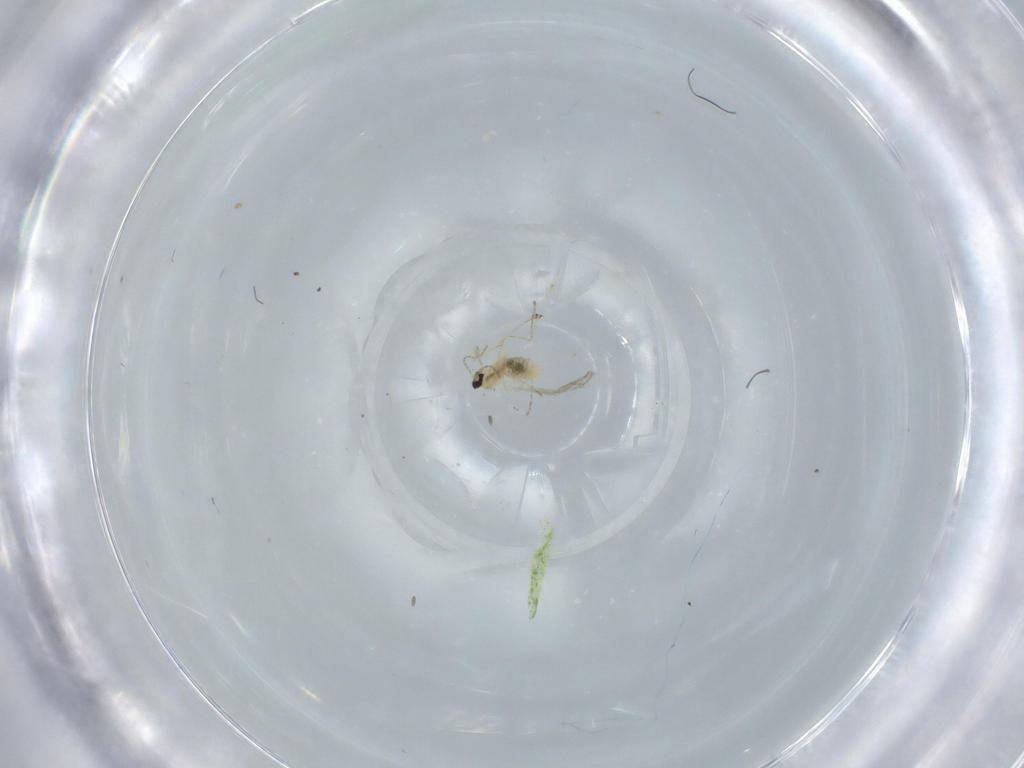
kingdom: Animalia
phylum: Arthropoda
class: Insecta
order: Diptera
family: Cecidomyiidae
